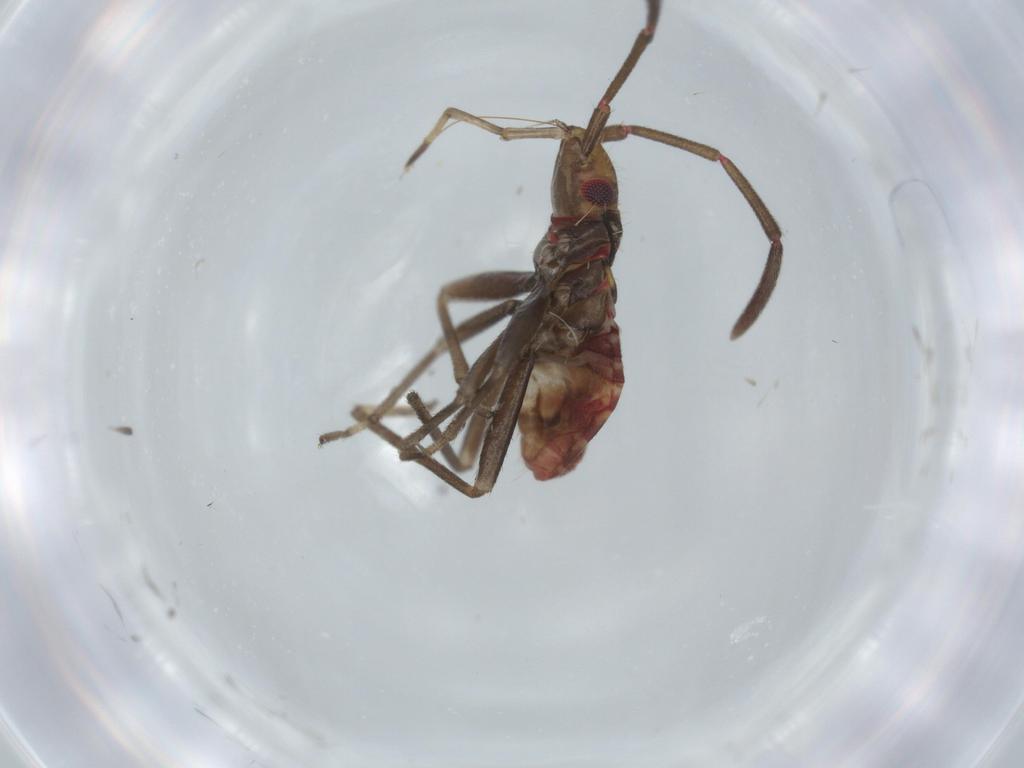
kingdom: Animalia
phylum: Arthropoda
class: Insecta
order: Hemiptera
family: Rhyparochromidae
